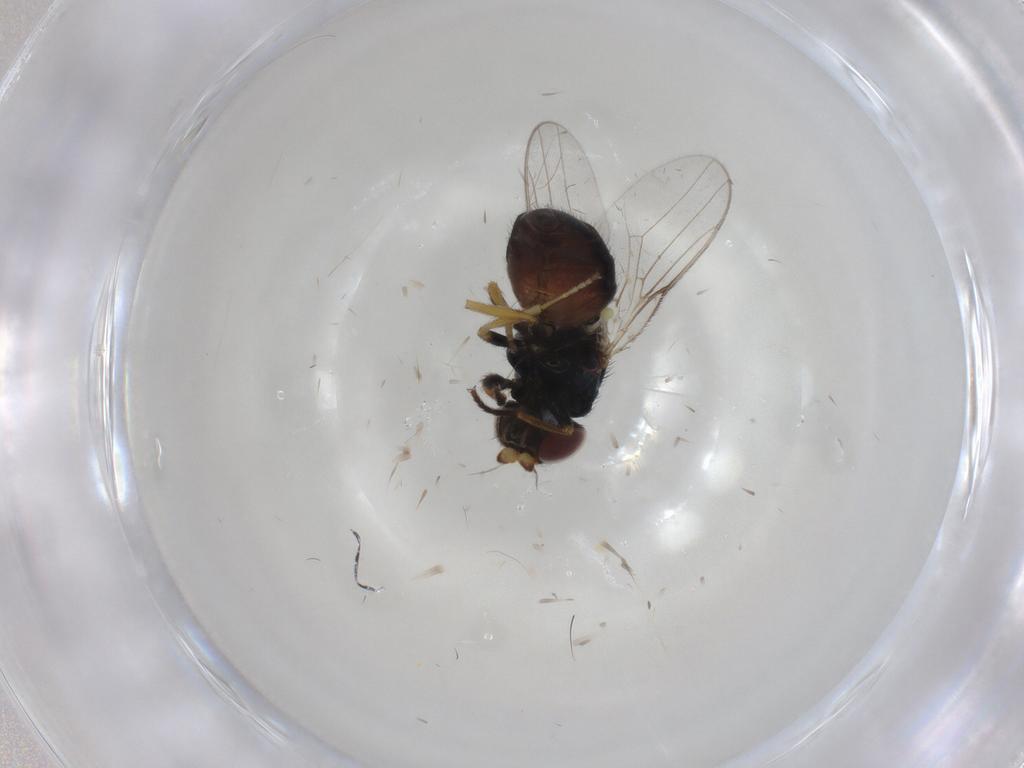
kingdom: Animalia
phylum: Arthropoda
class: Insecta
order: Diptera
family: Chloropidae
